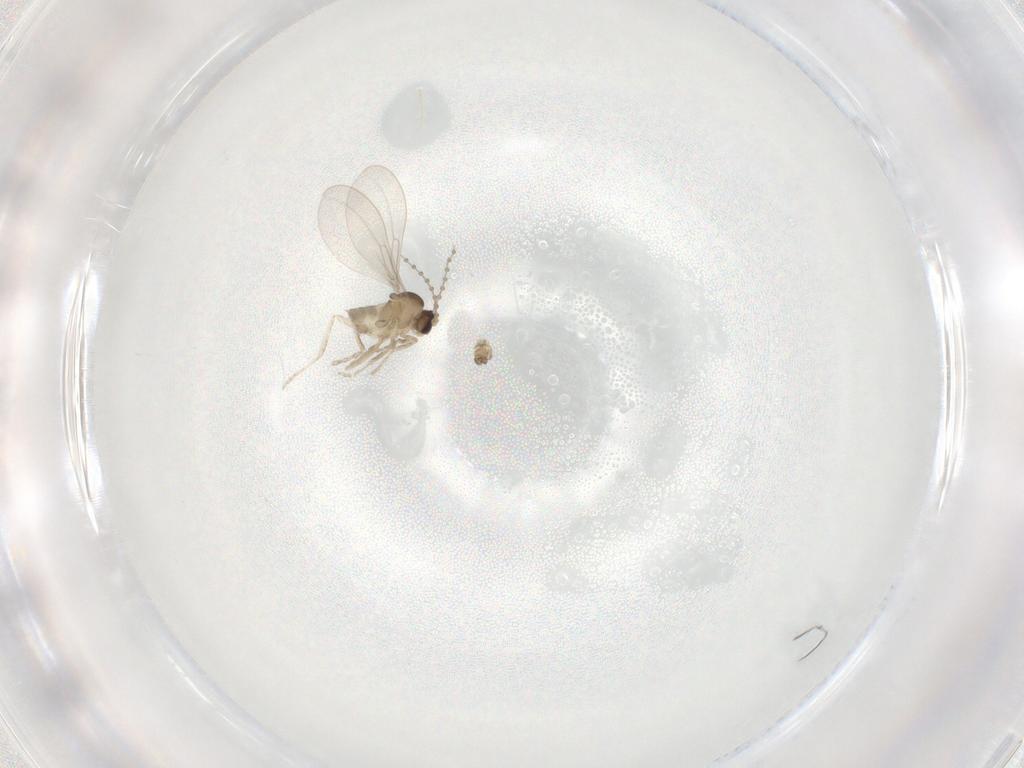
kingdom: Animalia
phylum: Arthropoda
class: Insecta
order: Diptera
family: Cecidomyiidae
